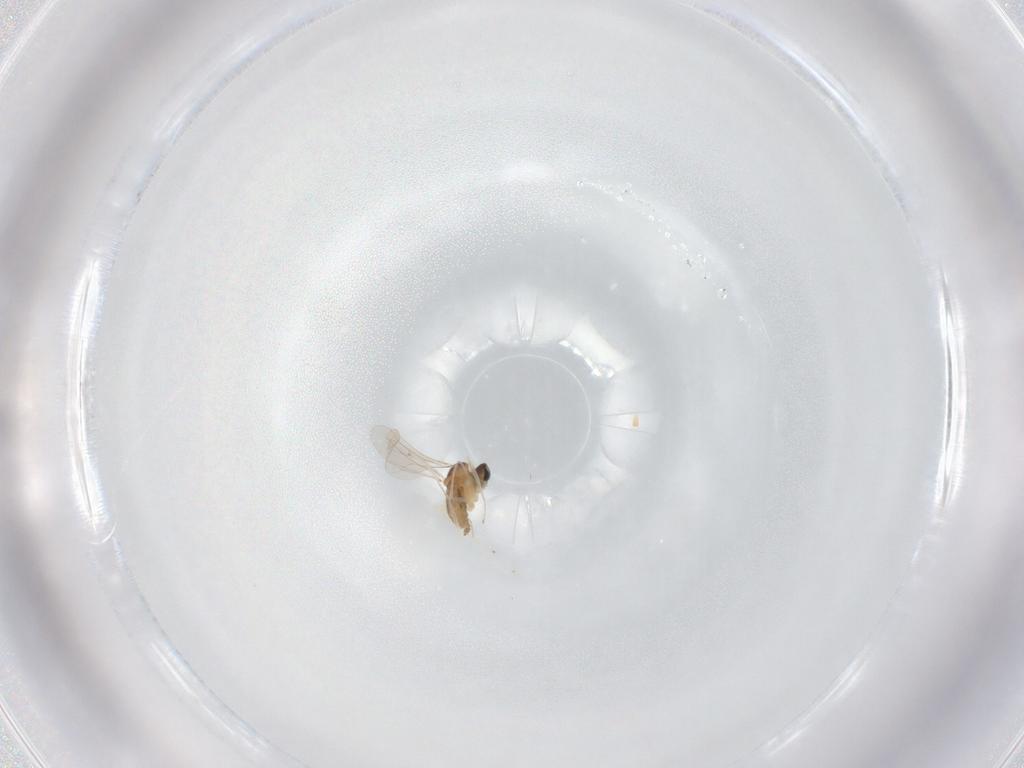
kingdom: Animalia
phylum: Arthropoda
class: Insecta
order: Diptera
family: Cecidomyiidae
